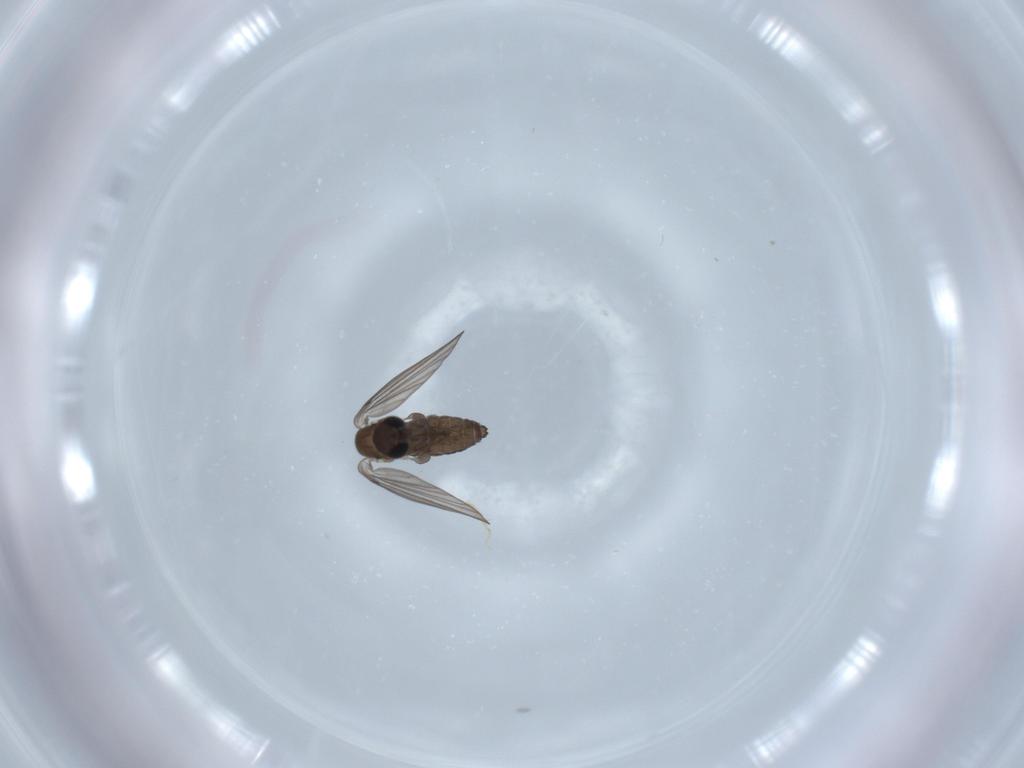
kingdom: Animalia
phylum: Arthropoda
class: Insecta
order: Diptera
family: Psychodidae
